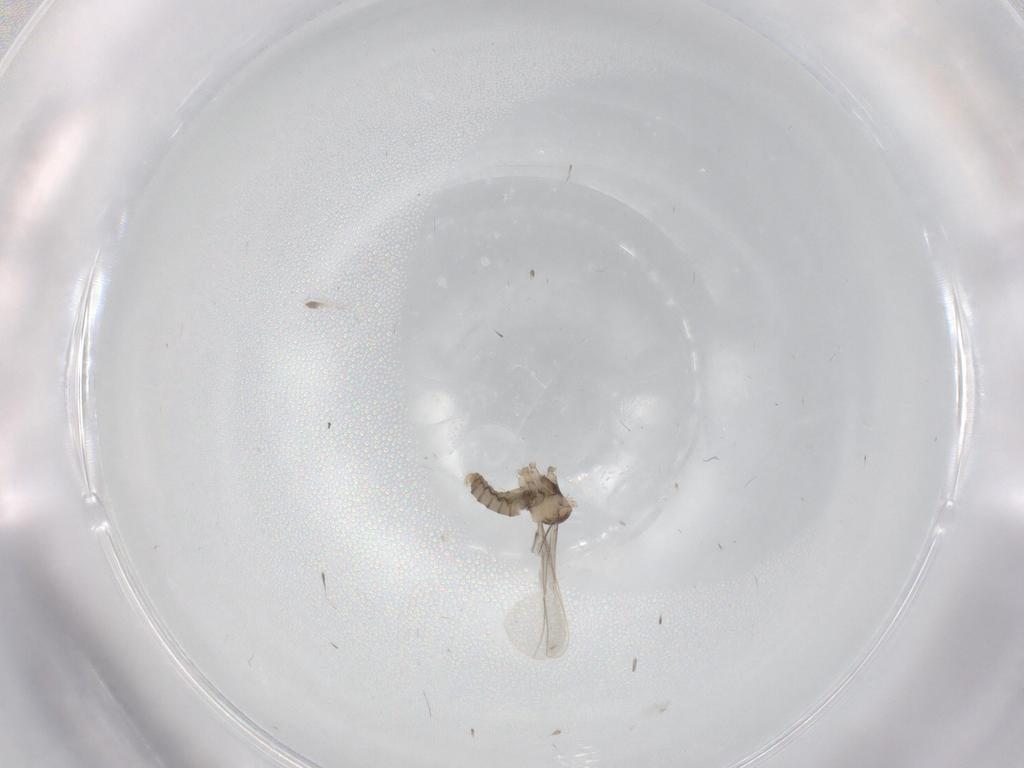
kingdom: Animalia
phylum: Arthropoda
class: Insecta
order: Diptera
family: Cecidomyiidae
